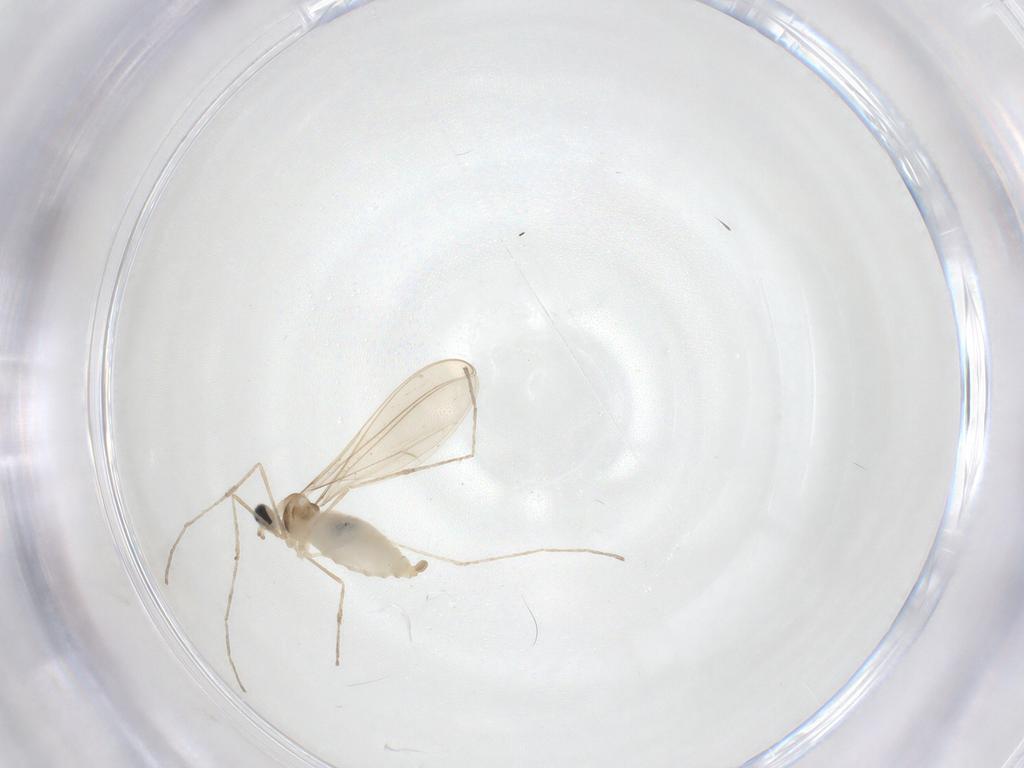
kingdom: Animalia
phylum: Arthropoda
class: Insecta
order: Diptera
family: Cecidomyiidae
